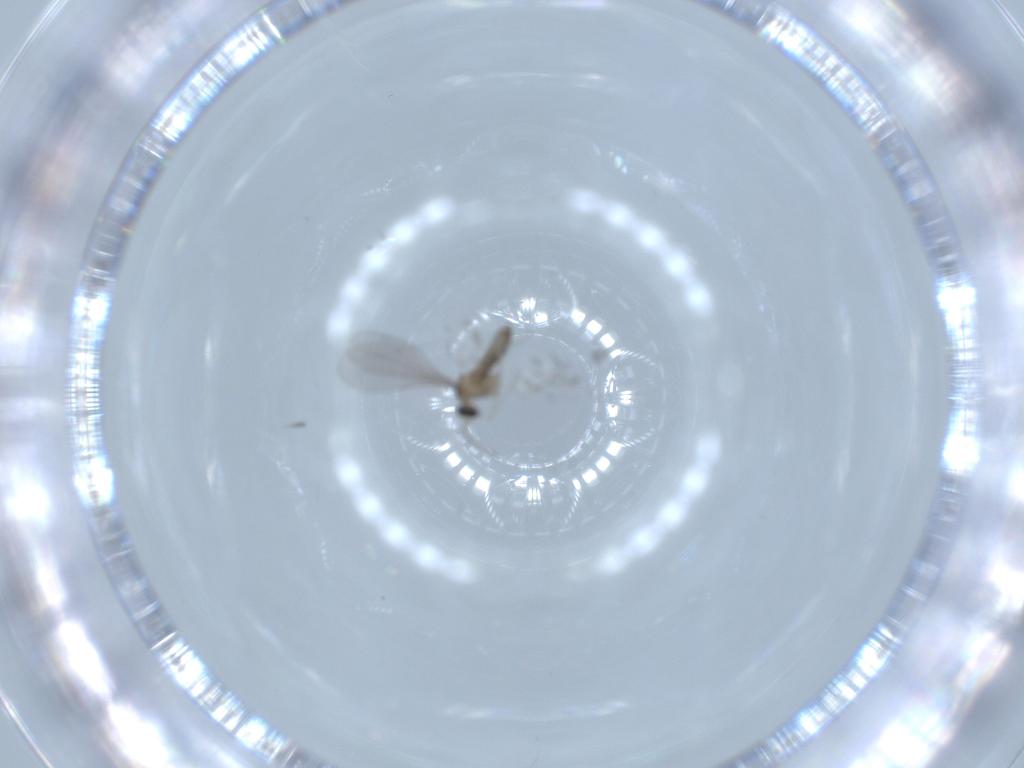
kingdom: Animalia
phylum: Arthropoda
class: Insecta
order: Diptera
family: Cecidomyiidae
